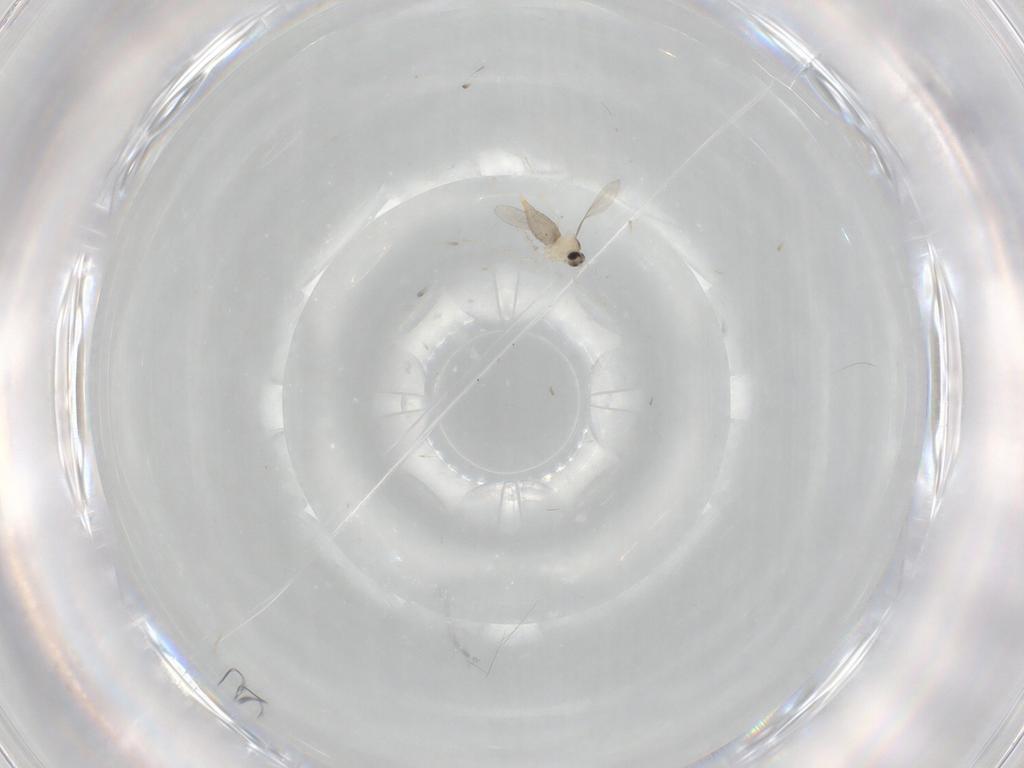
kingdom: Animalia
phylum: Arthropoda
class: Insecta
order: Diptera
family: Cecidomyiidae
